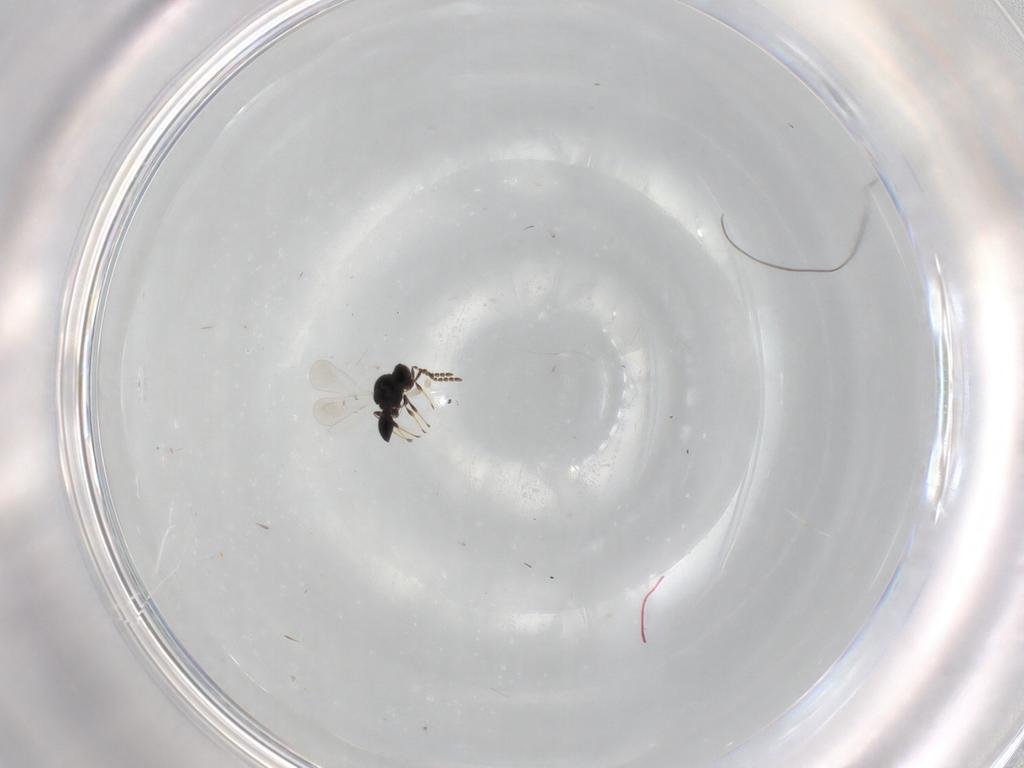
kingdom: Animalia
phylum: Arthropoda
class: Insecta
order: Hymenoptera
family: Platygastridae
